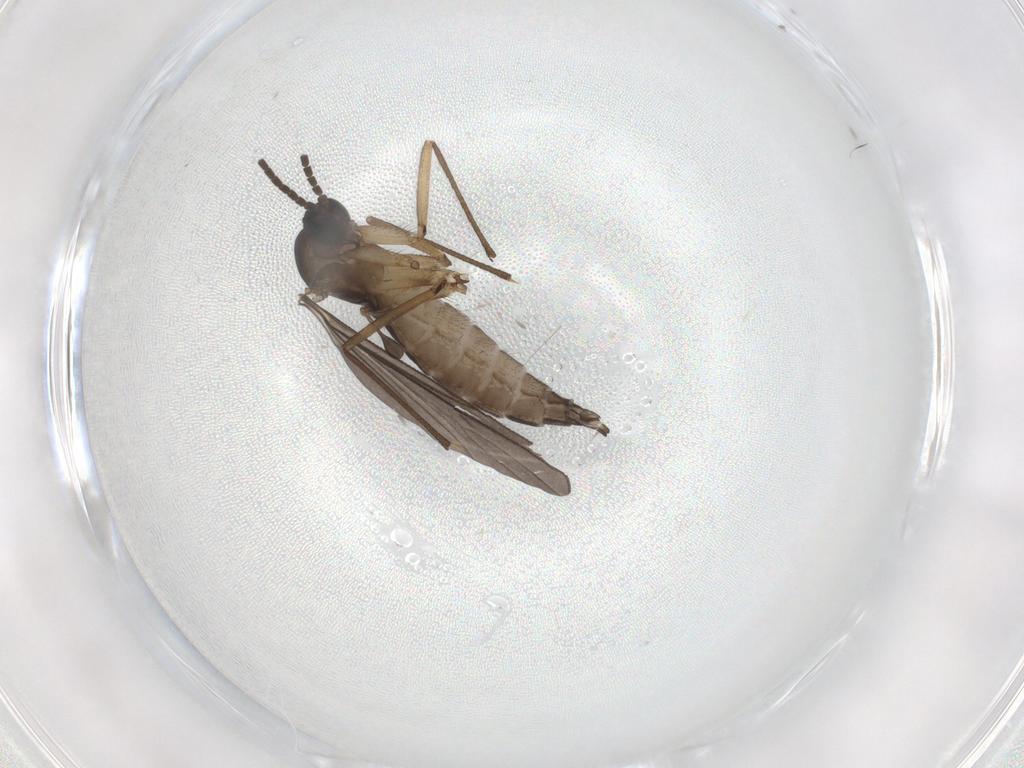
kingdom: Animalia
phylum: Arthropoda
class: Insecta
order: Diptera
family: Sciaridae
